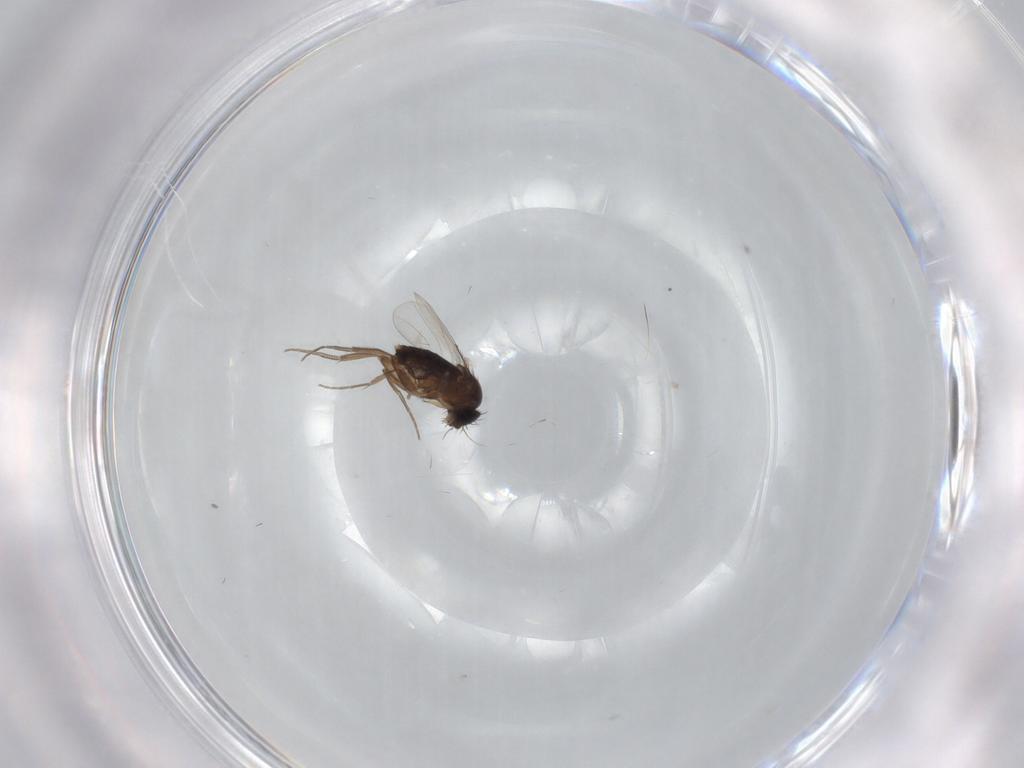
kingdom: Animalia
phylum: Arthropoda
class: Insecta
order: Diptera
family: Phoridae
